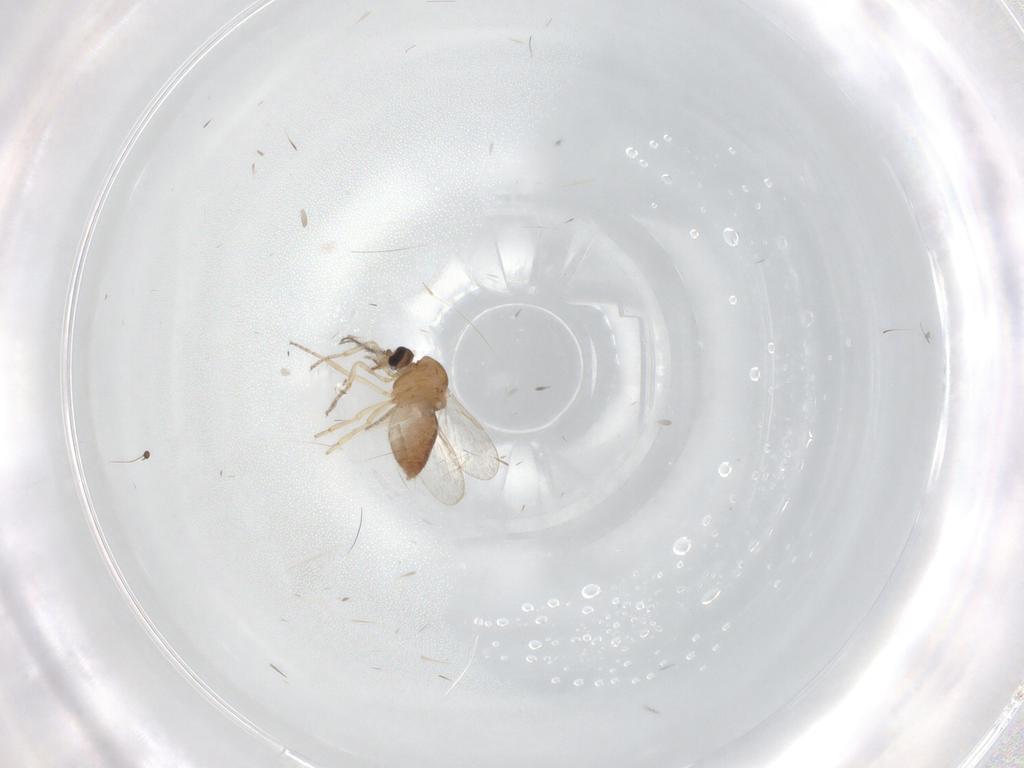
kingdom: Animalia
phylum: Arthropoda
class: Insecta
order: Diptera
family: Ceratopogonidae
